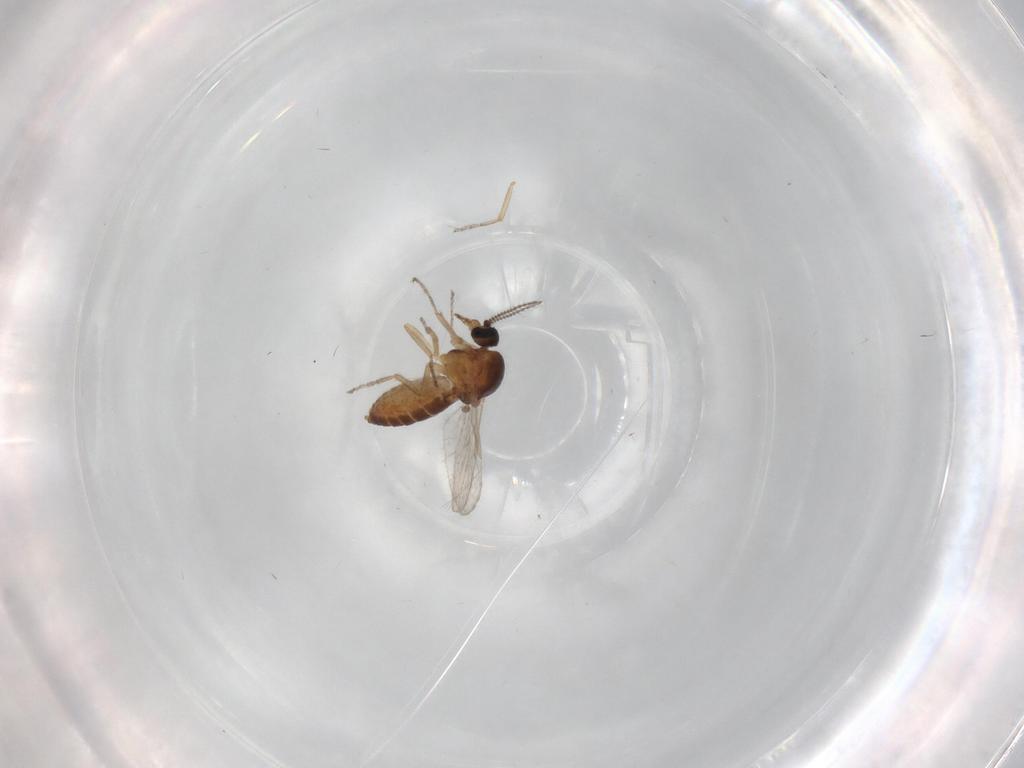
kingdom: Animalia
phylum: Arthropoda
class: Insecta
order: Diptera
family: Ceratopogonidae
